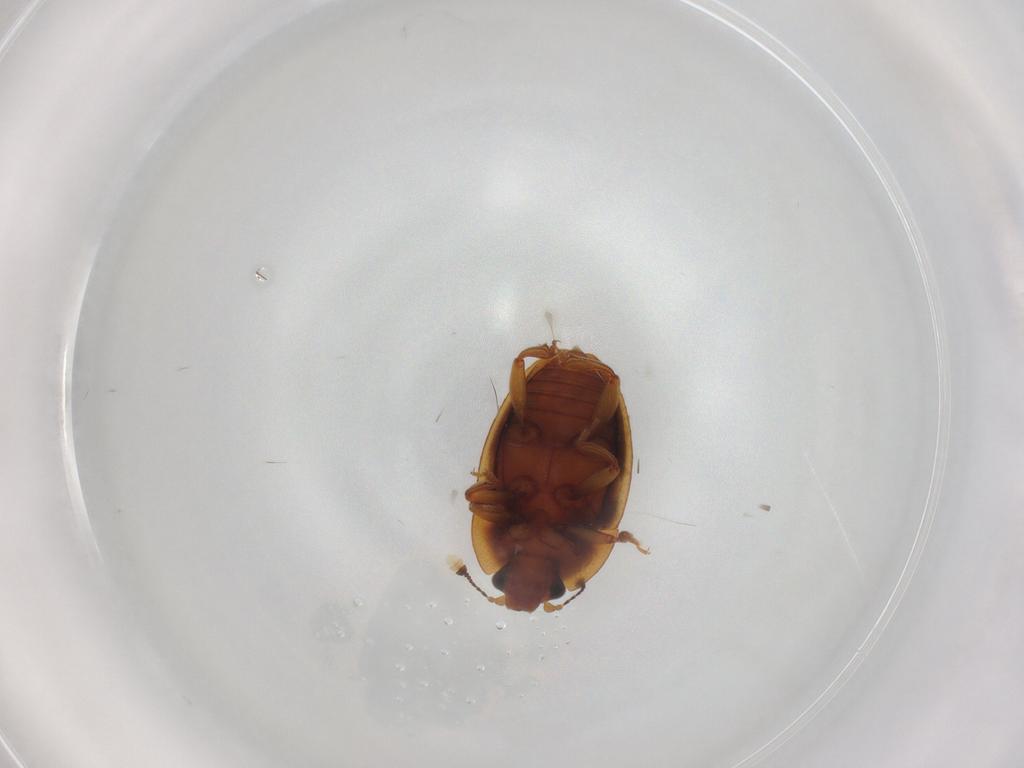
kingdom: Animalia
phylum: Arthropoda
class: Insecta
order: Coleoptera
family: Nitidulidae
